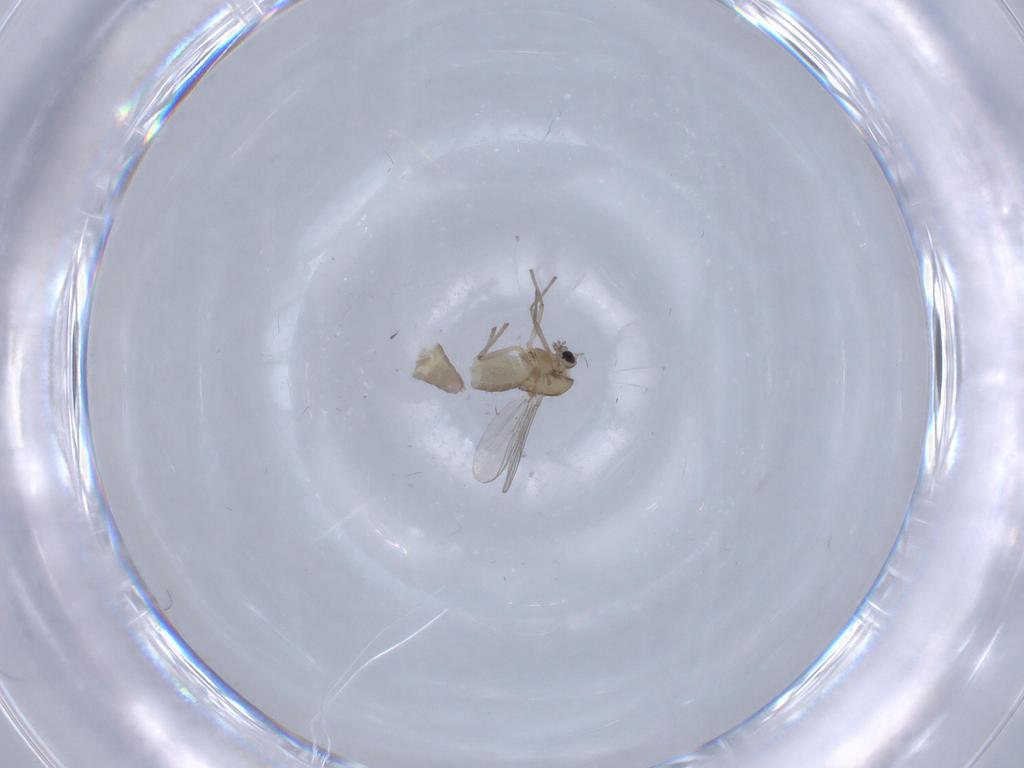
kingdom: Animalia
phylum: Arthropoda
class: Insecta
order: Diptera
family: Chironomidae
